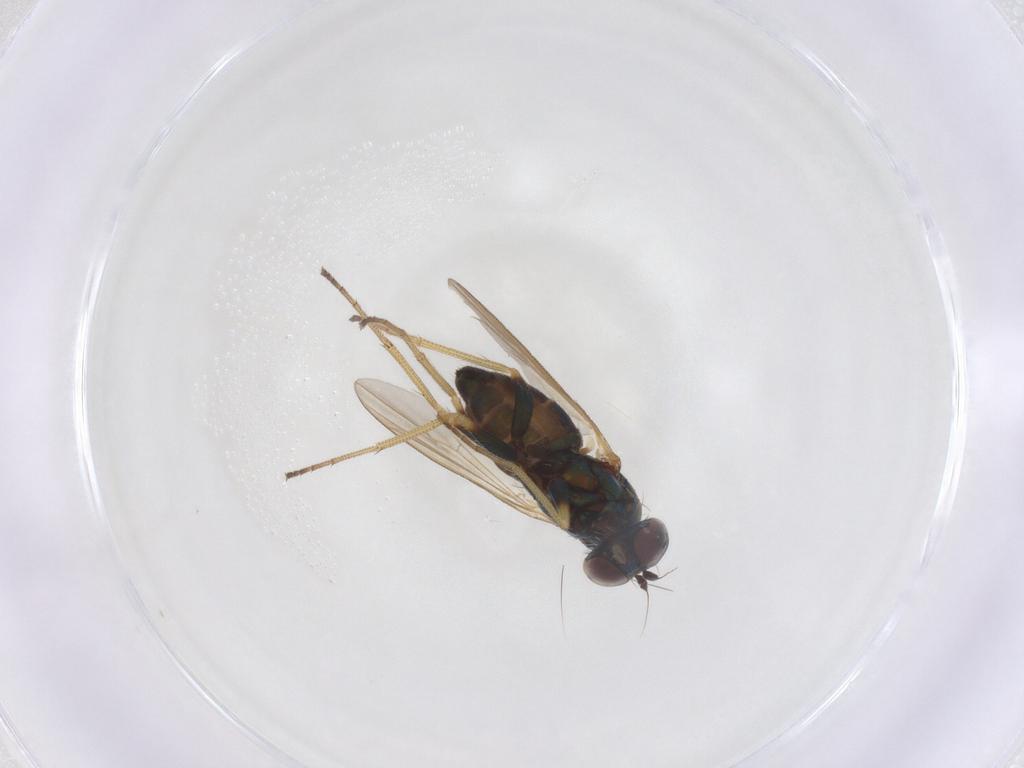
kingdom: Animalia
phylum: Arthropoda
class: Insecta
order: Diptera
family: Dolichopodidae
